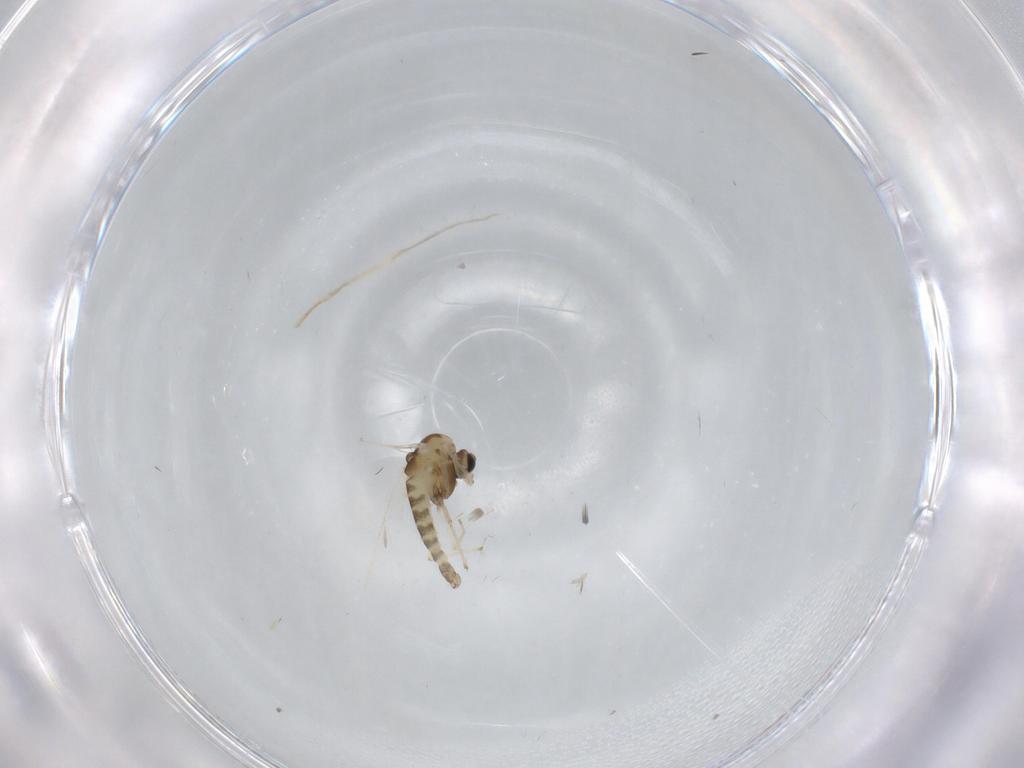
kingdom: Animalia
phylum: Arthropoda
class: Insecta
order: Diptera
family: Chironomidae
